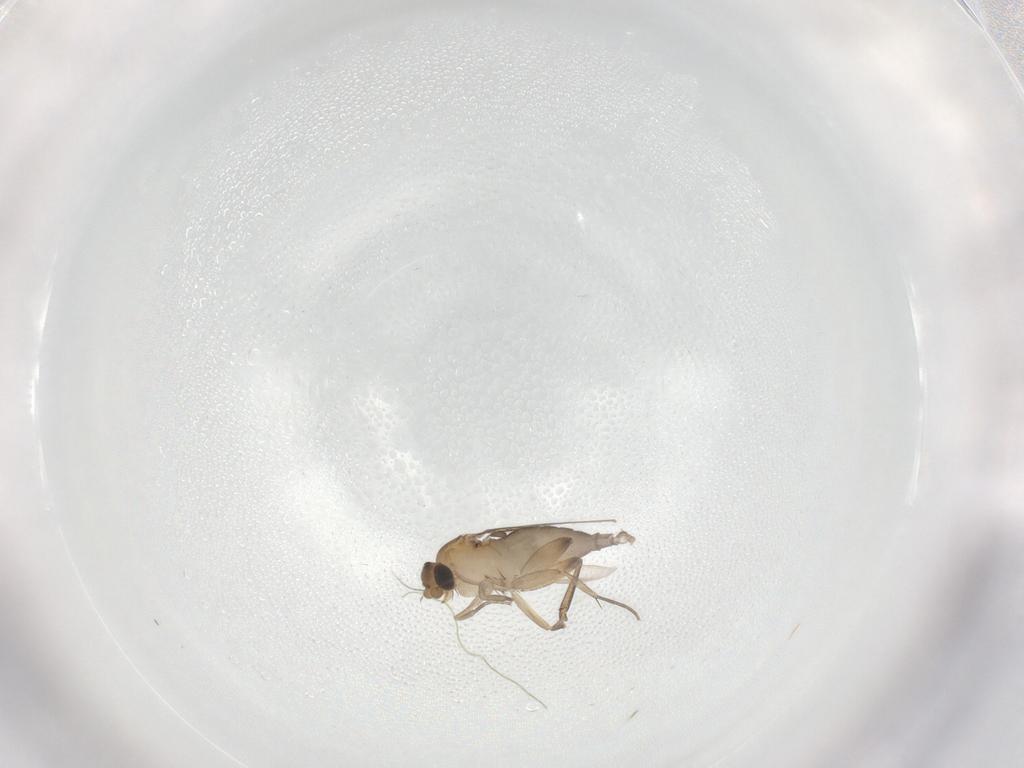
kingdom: Animalia
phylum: Arthropoda
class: Insecta
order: Diptera
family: Phoridae
